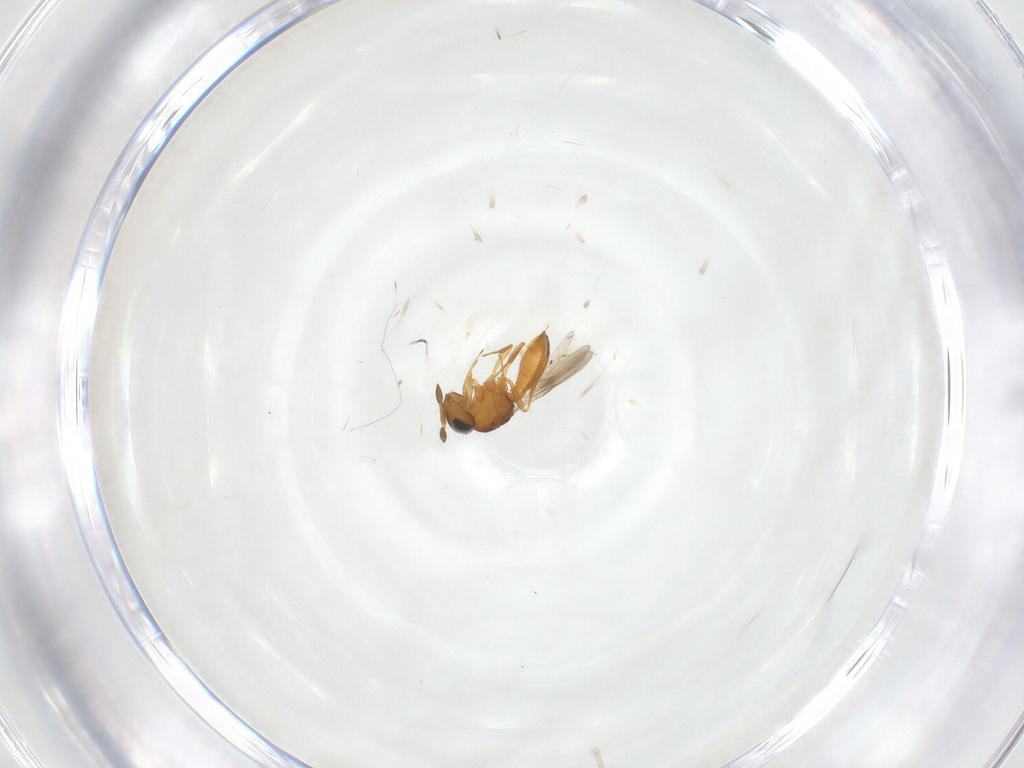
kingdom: Animalia
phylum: Arthropoda
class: Insecta
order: Hymenoptera
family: Scelionidae
